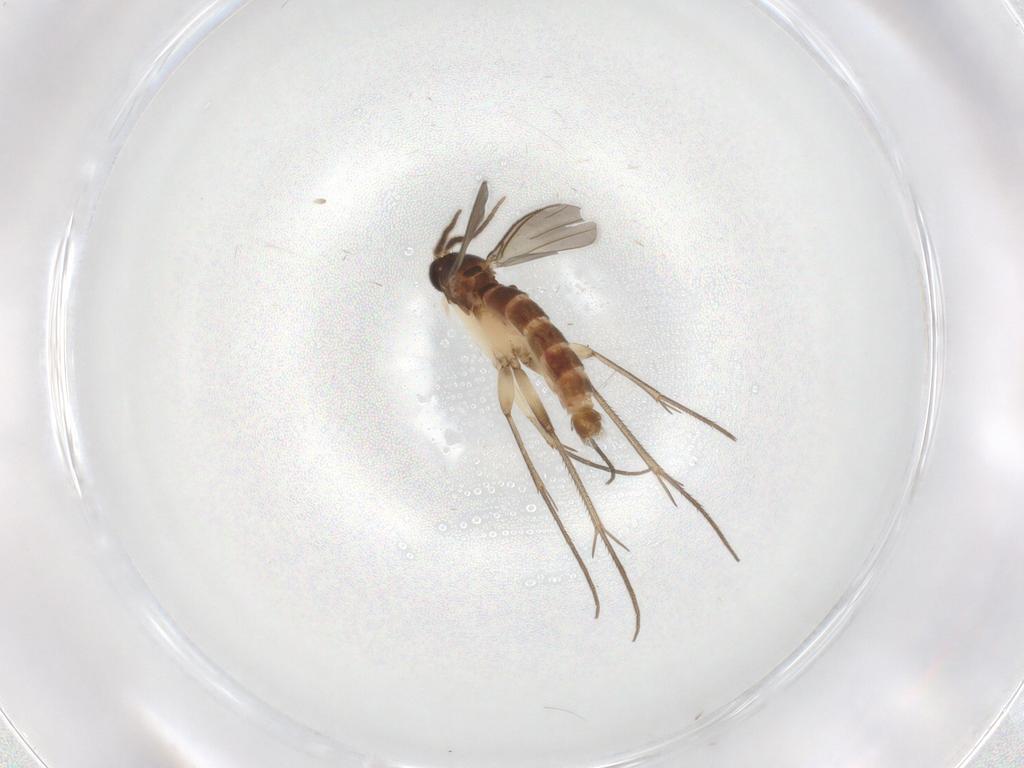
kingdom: Animalia
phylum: Arthropoda
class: Insecta
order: Diptera
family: Mycetophilidae
